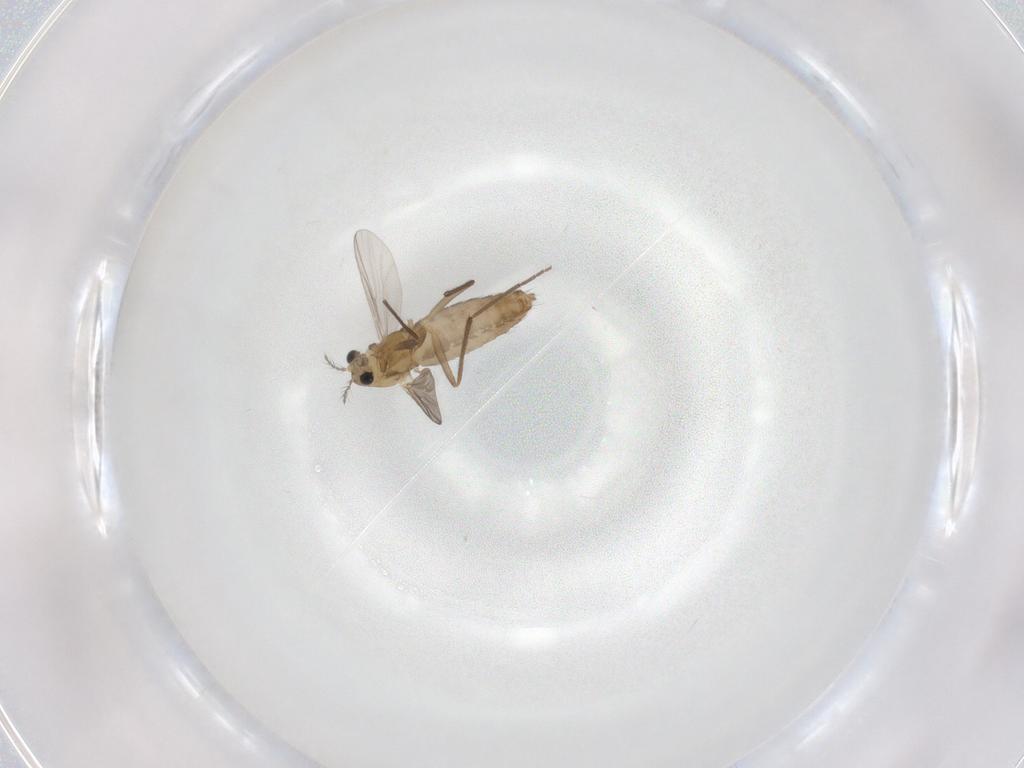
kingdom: Animalia
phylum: Arthropoda
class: Insecta
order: Diptera
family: Chironomidae
